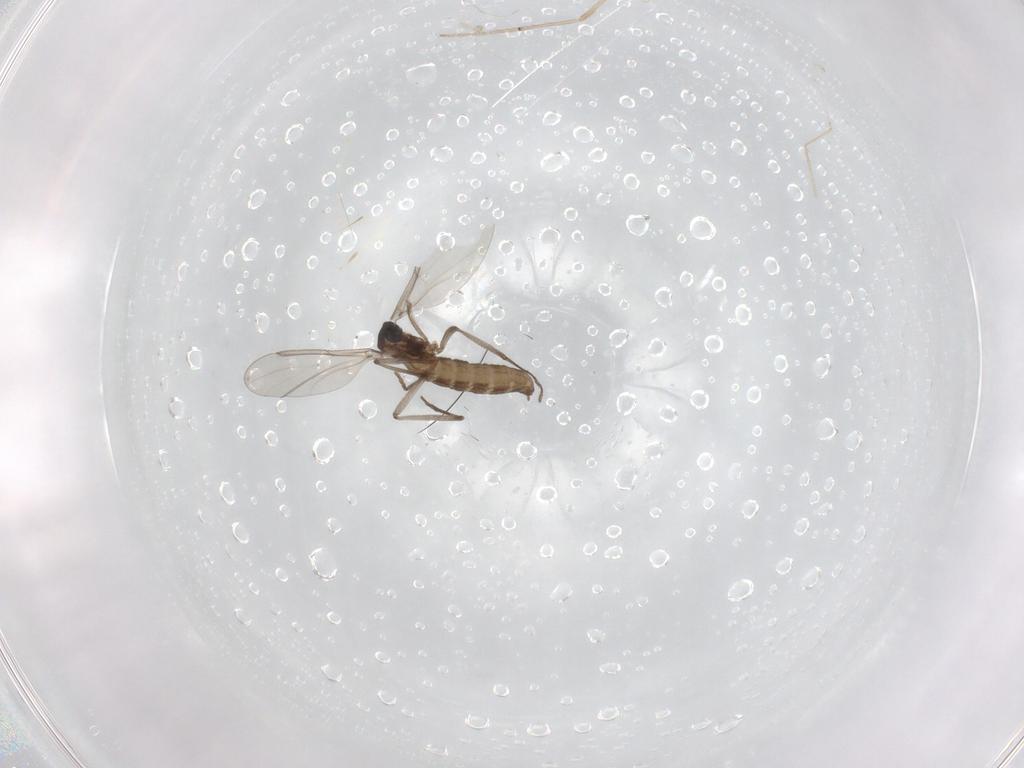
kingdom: Animalia
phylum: Arthropoda
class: Insecta
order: Diptera
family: Cecidomyiidae
